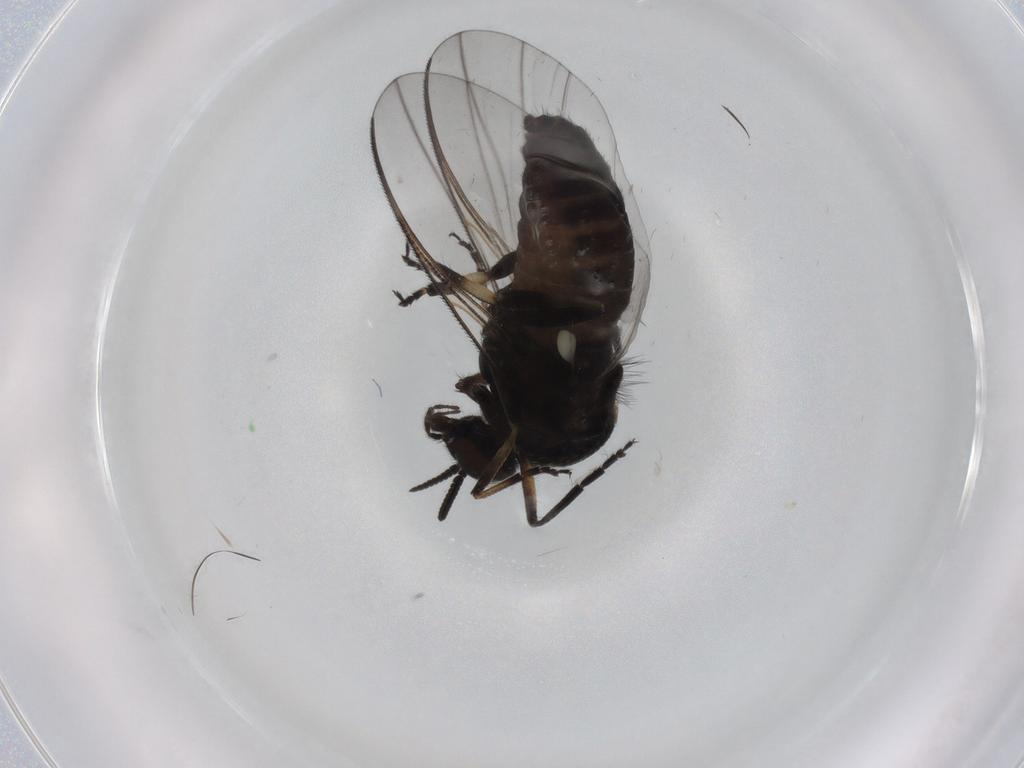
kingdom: Animalia
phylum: Arthropoda
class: Insecta
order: Diptera
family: Simuliidae
